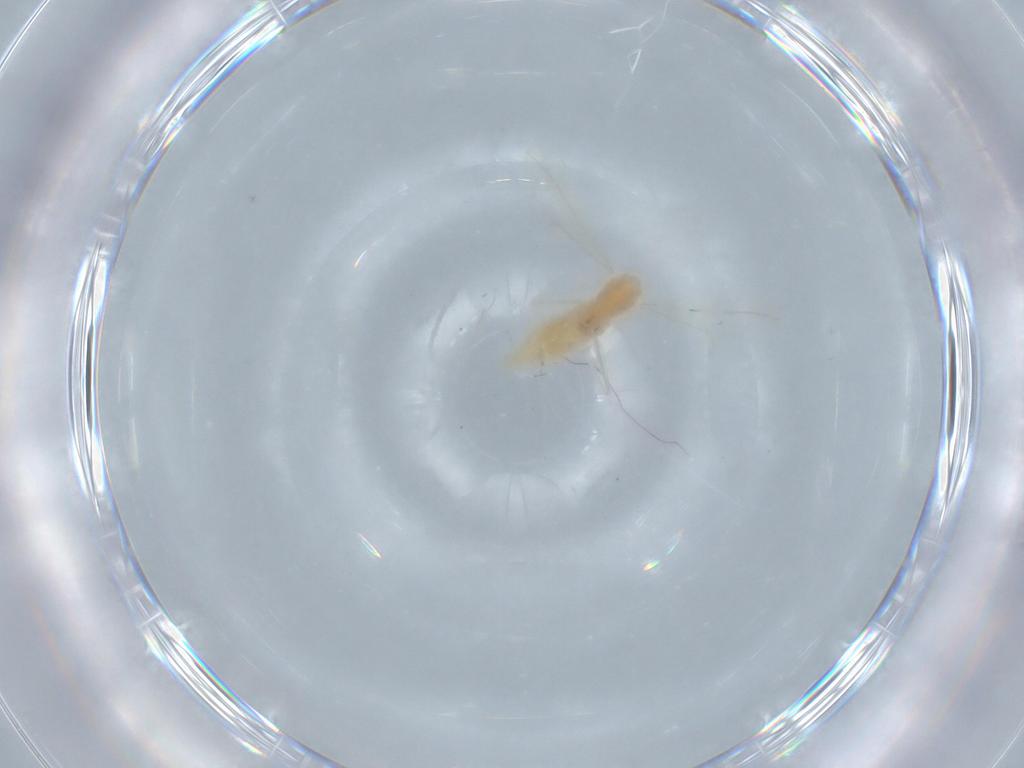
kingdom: Animalia
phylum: Arthropoda
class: Insecta
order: Diptera
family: Cecidomyiidae
